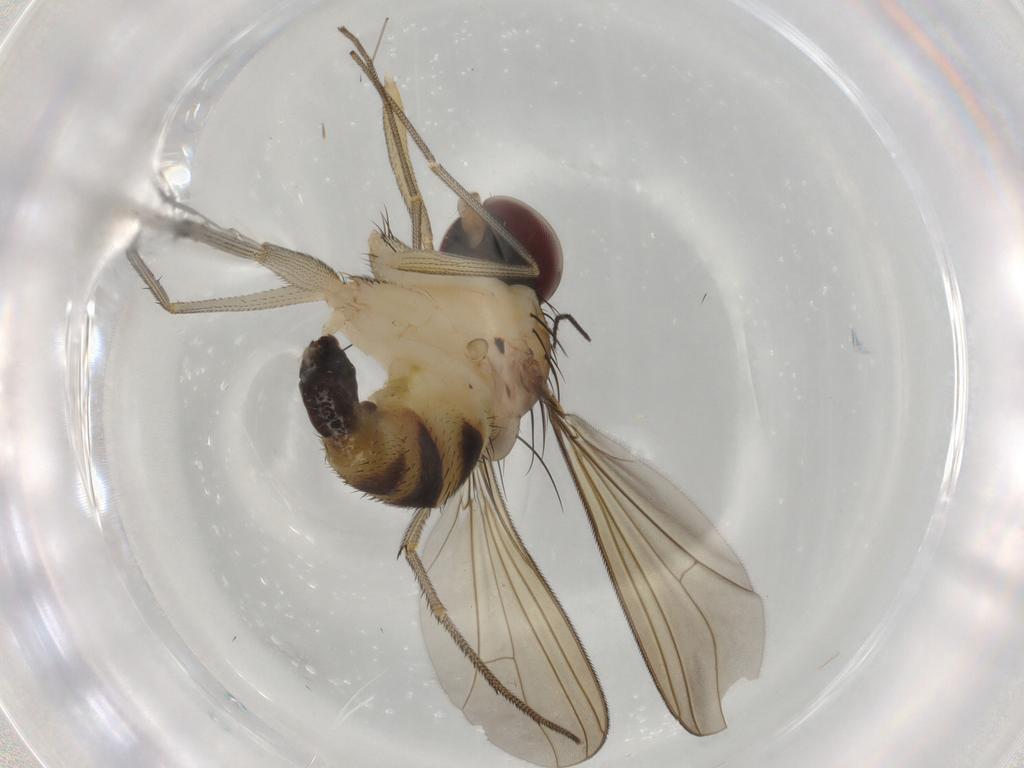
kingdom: Animalia
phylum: Arthropoda
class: Insecta
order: Diptera
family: Dolichopodidae
